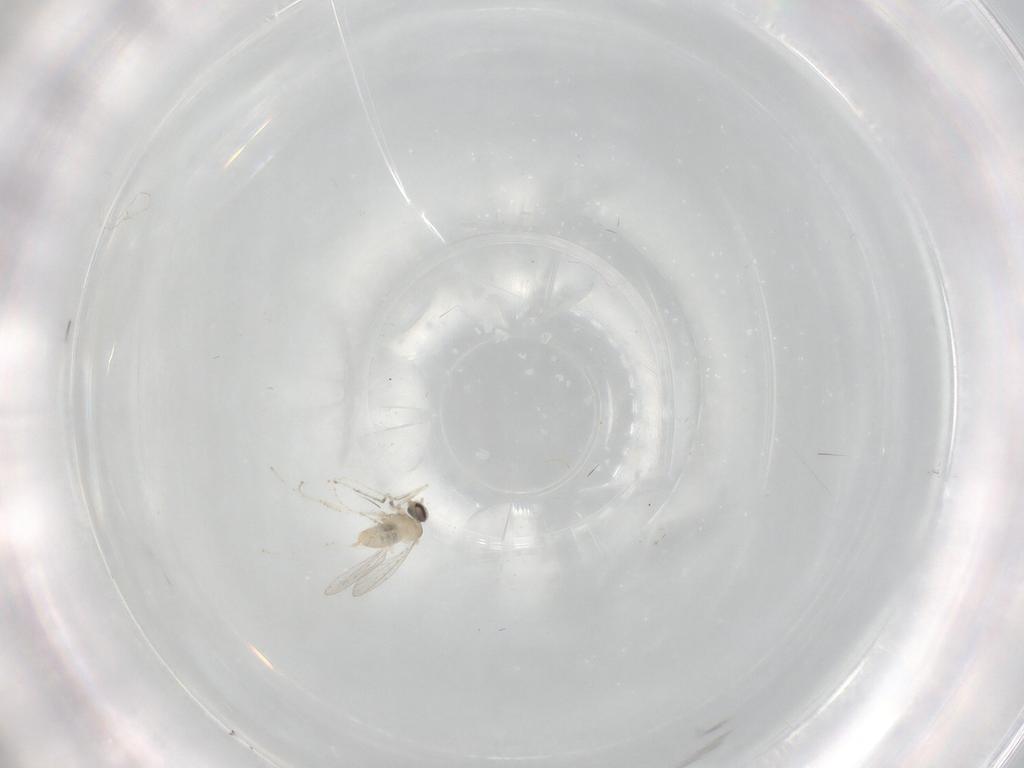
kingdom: Animalia
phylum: Arthropoda
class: Insecta
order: Diptera
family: Cecidomyiidae
